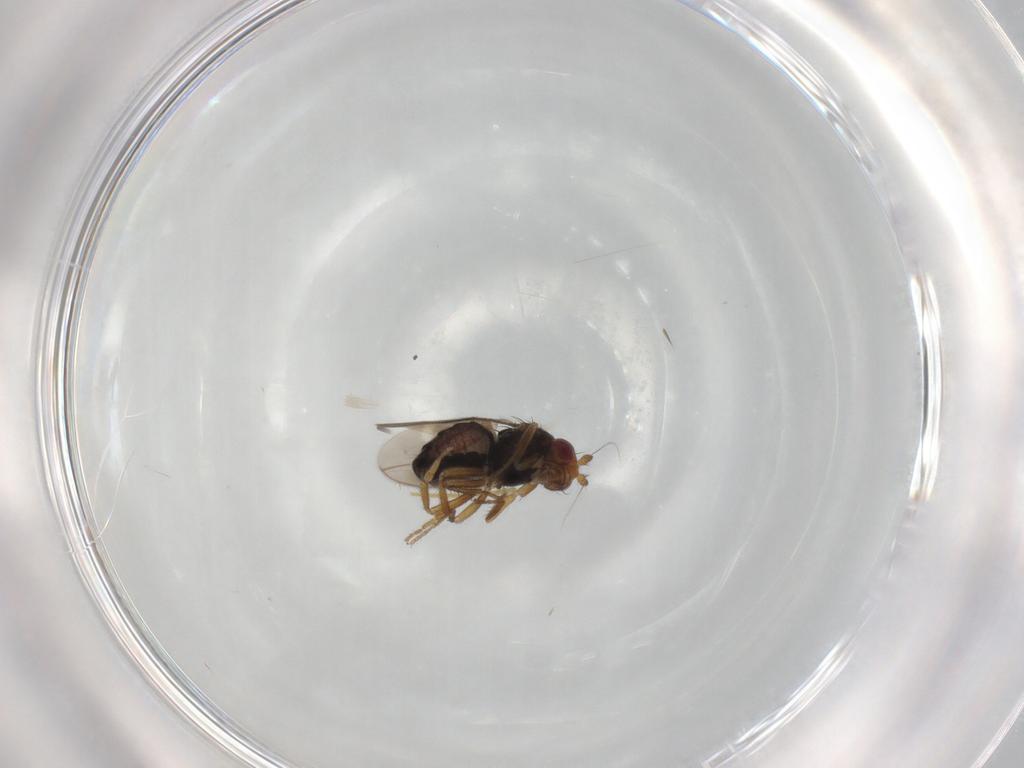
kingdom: Animalia
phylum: Arthropoda
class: Insecta
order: Diptera
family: Sphaeroceridae
